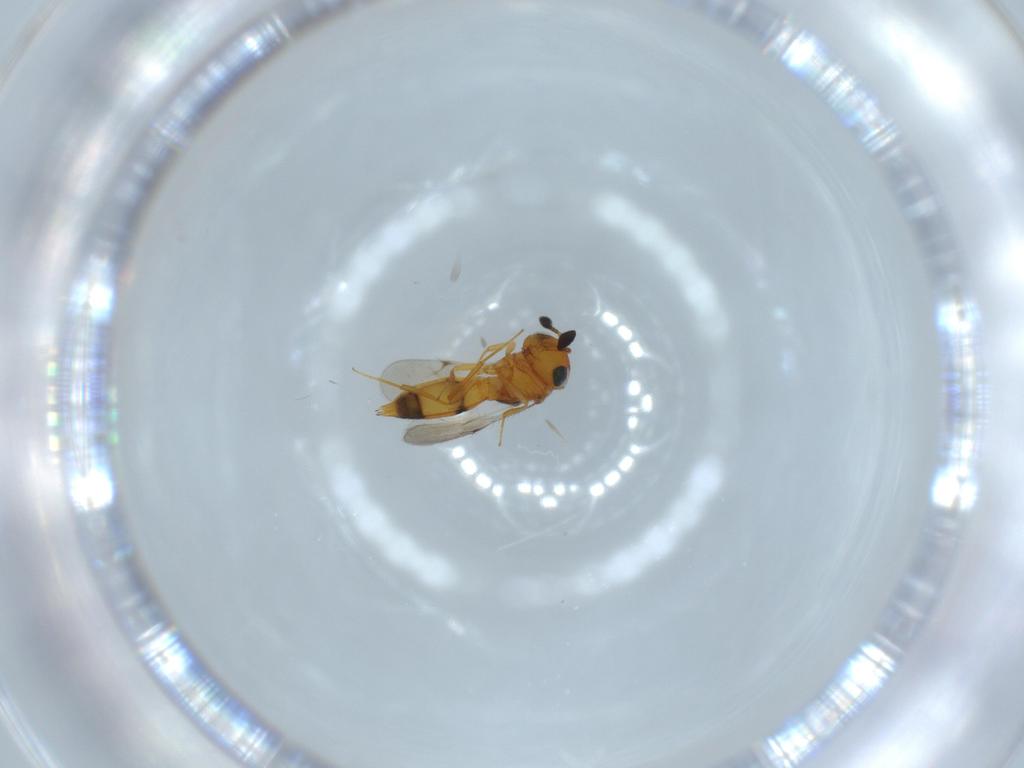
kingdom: Animalia
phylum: Arthropoda
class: Insecta
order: Hymenoptera
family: Scelionidae
